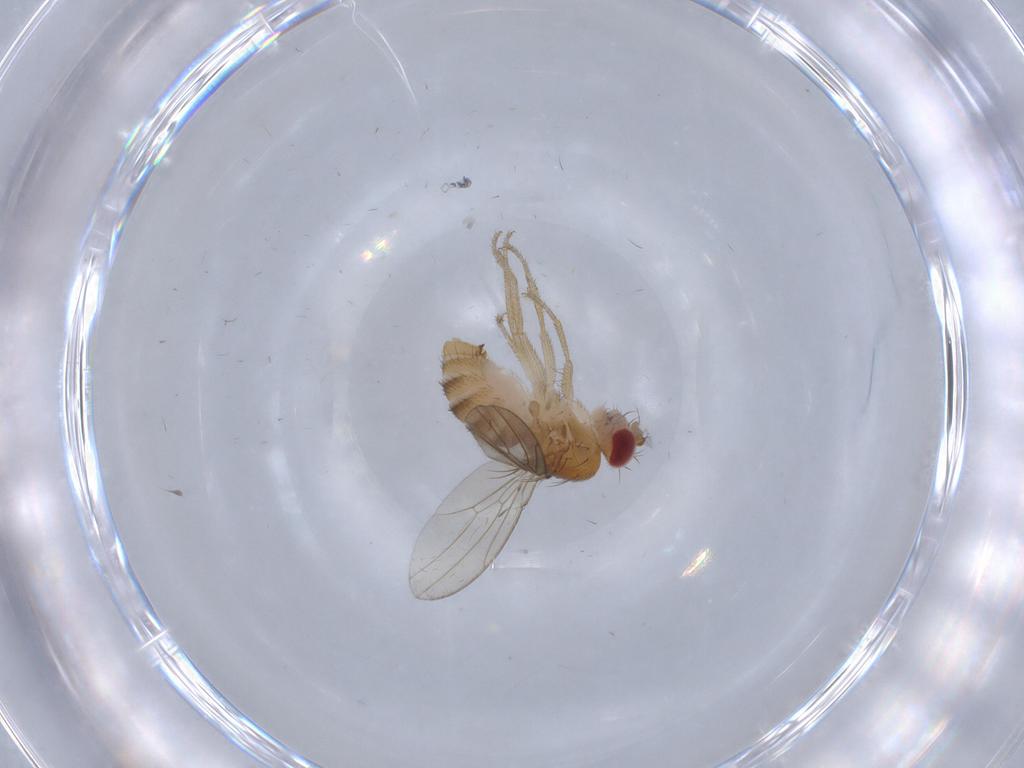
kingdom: Animalia
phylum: Arthropoda
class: Insecta
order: Diptera
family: Drosophilidae
